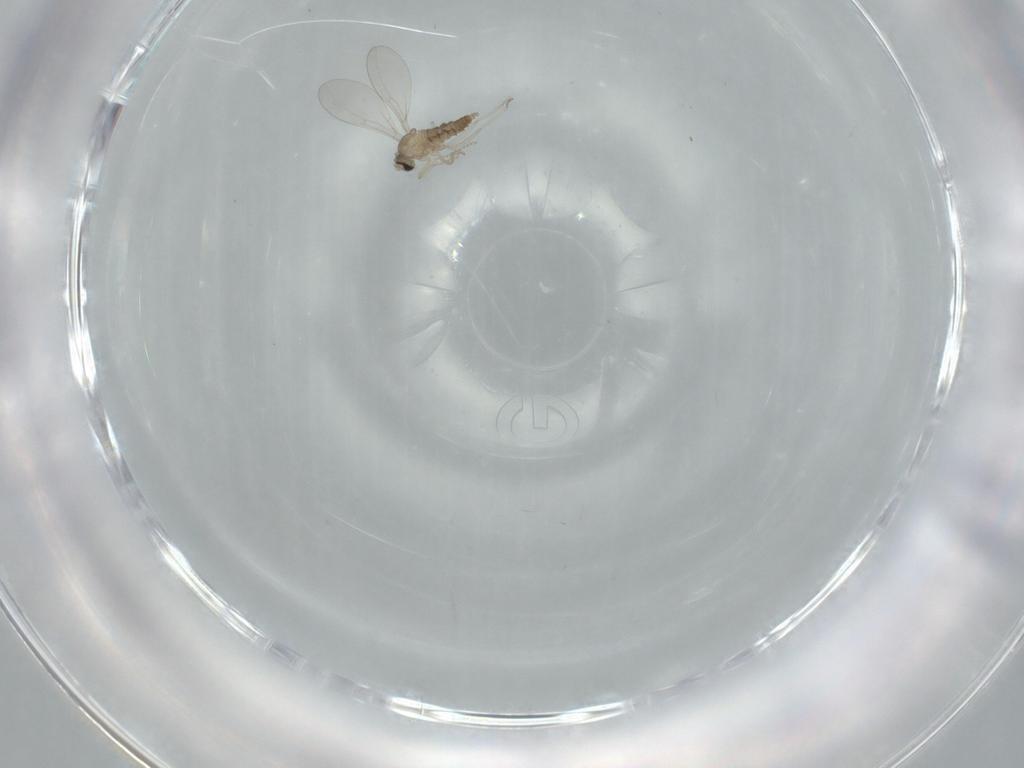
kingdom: Animalia
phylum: Arthropoda
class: Insecta
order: Diptera
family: Cecidomyiidae
